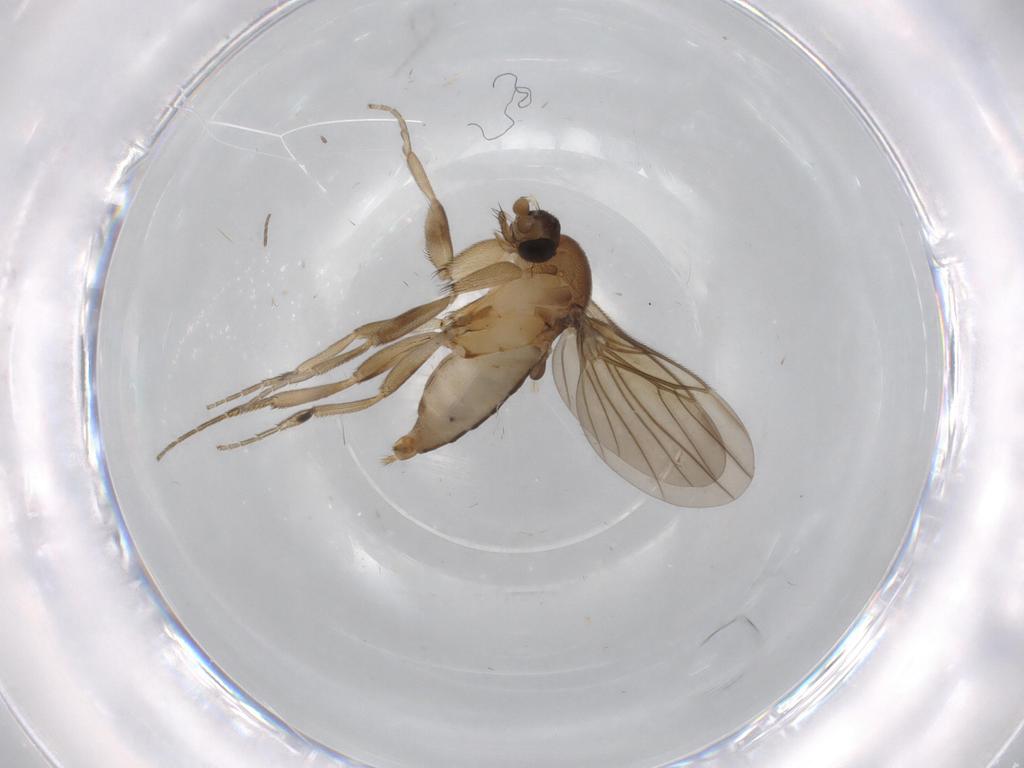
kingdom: Animalia
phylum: Arthropoda
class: Insecta
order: Diptera
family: Phoridae
